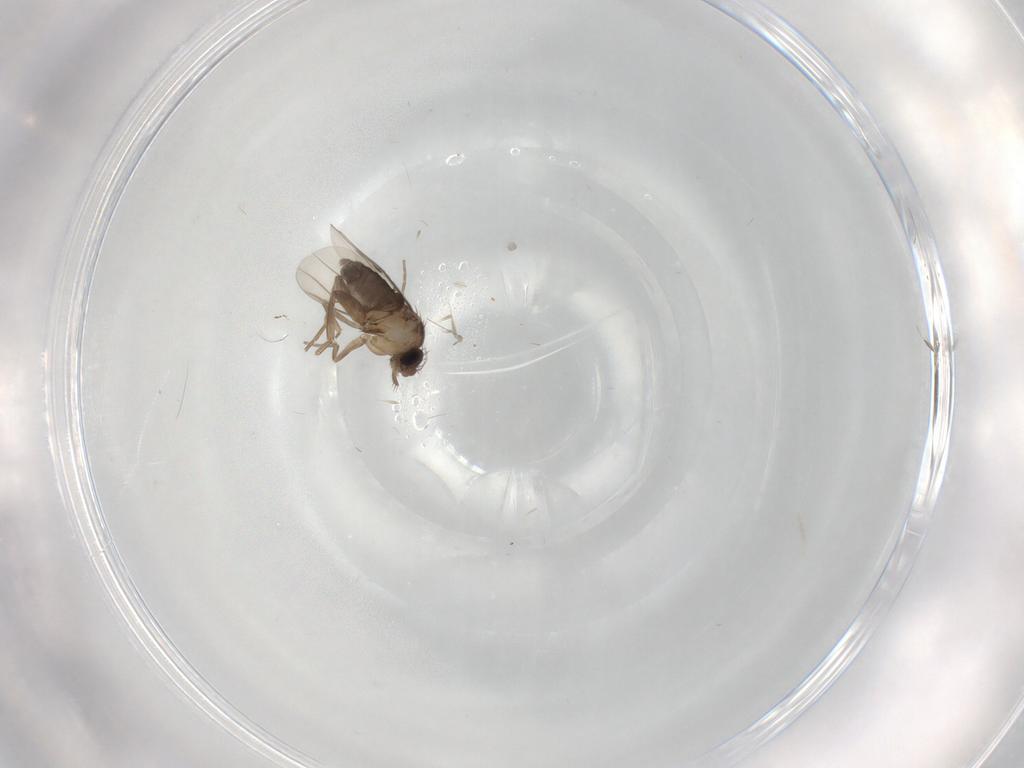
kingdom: Animalia
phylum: Arthropoda
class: Insecta
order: Diptera
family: Phoridae
